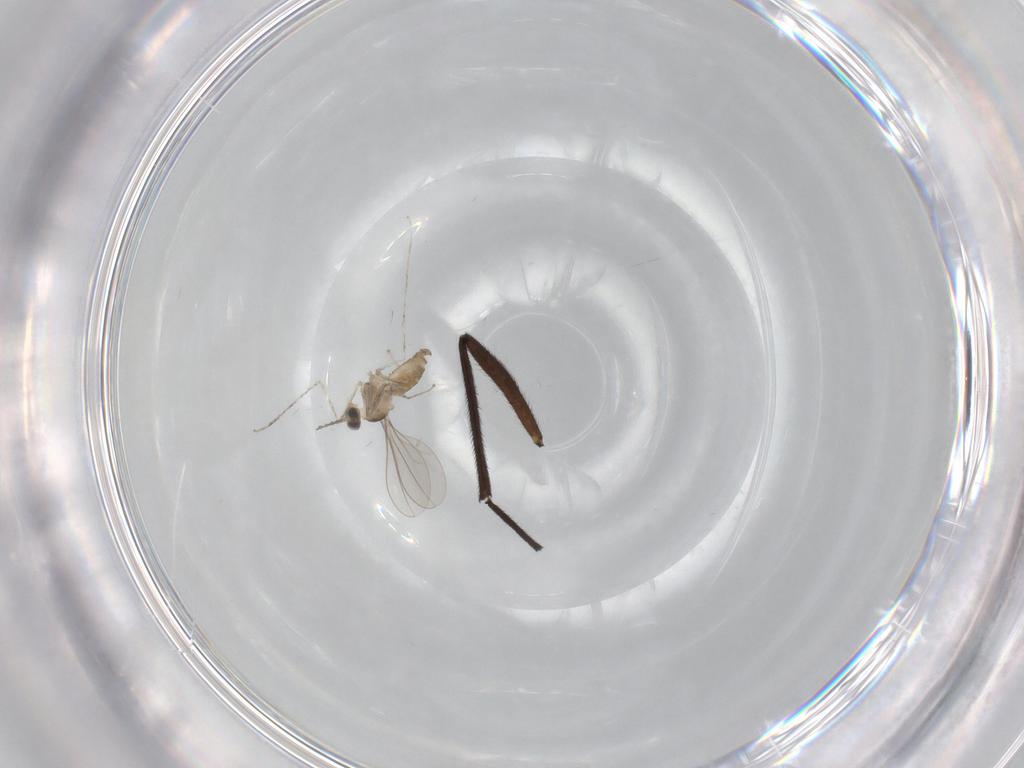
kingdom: Animalia
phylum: Arthropoda
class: Insecta
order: Diptera
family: Cecidomyiidae
